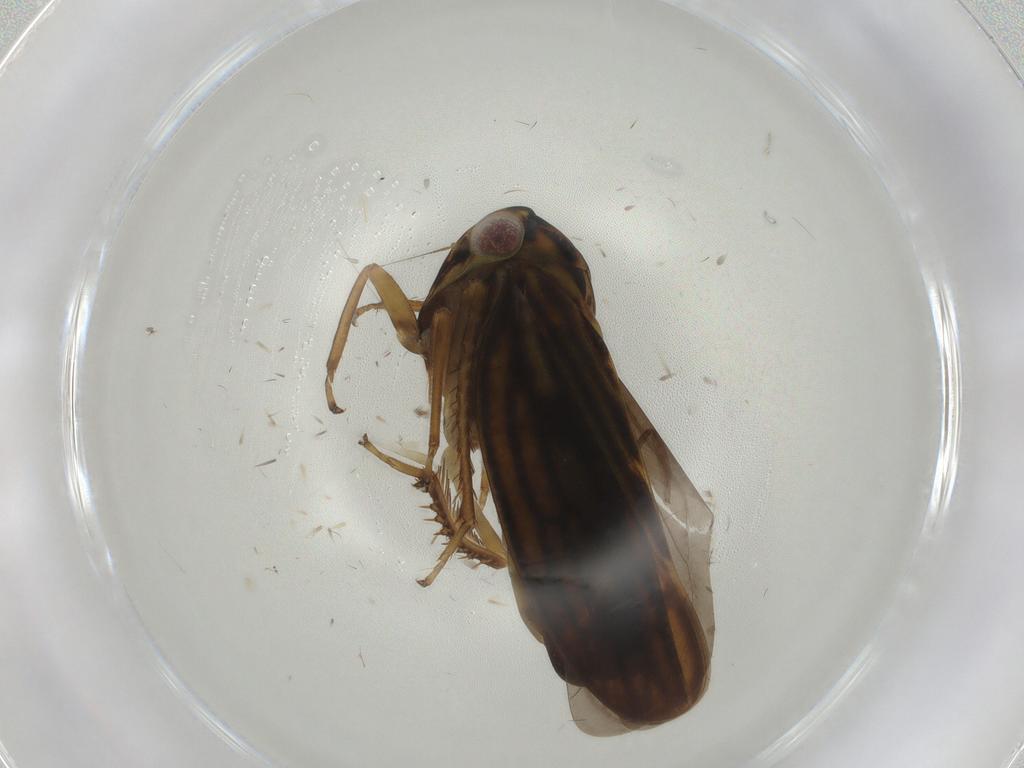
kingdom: Animalia
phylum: Arthropoda
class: Insecta
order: Hemiptera
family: Cicadellidae
